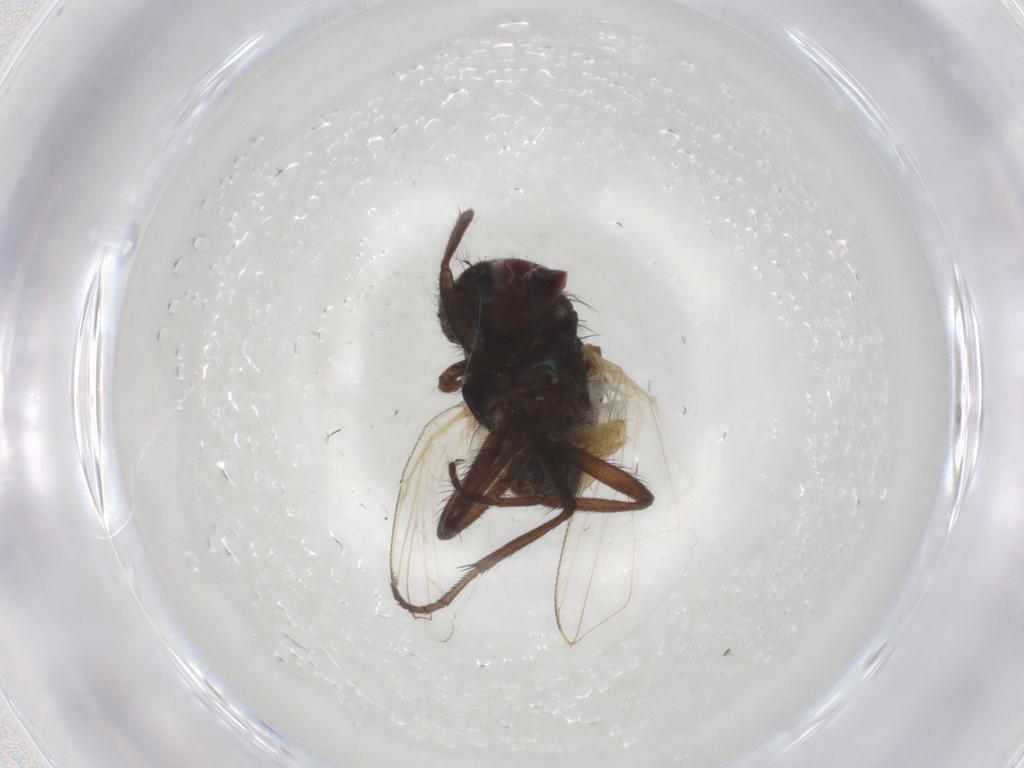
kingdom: Animalia
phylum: Arthropoda
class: Insecta
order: Diptera
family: Muscidae
